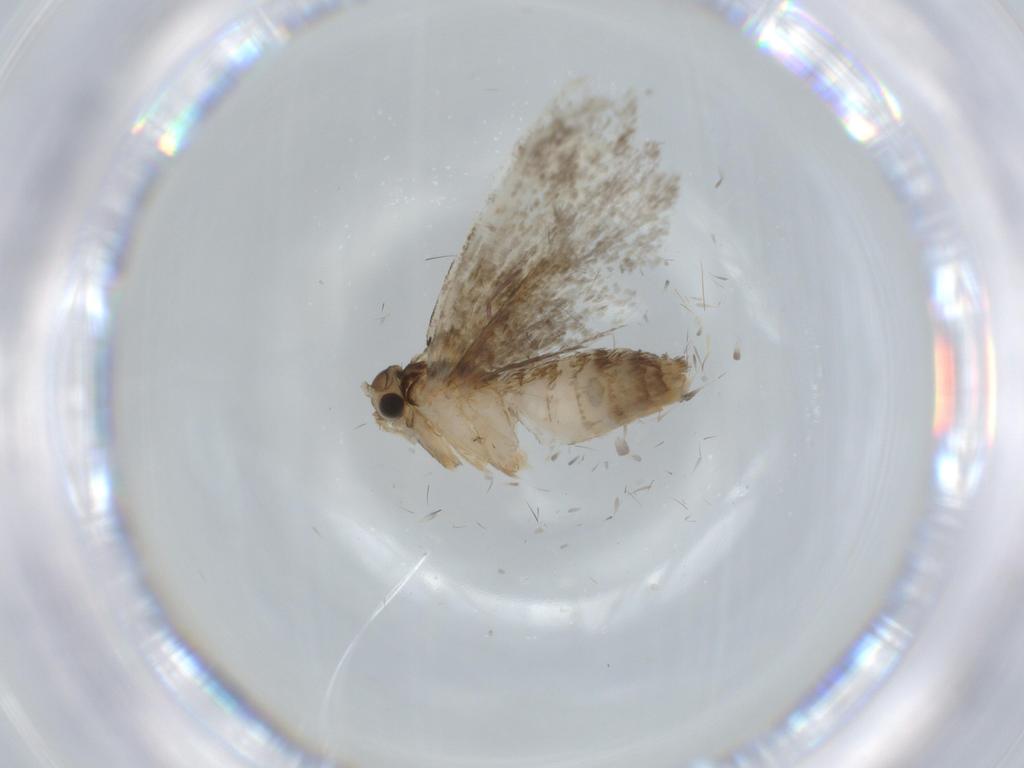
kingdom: Animalia
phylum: Arthropoda
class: Insecta
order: Lepidoptera
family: Tineidae
